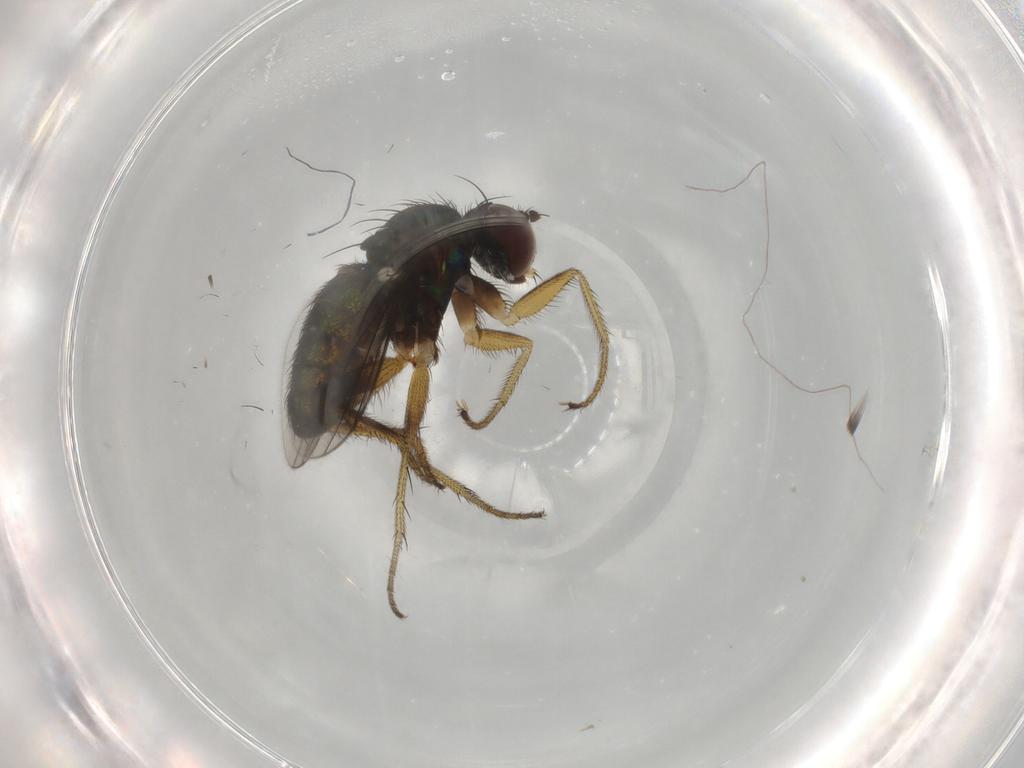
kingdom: Animalia
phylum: Arthropoda
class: Insecta
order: Diptera
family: Dolichopodidae
